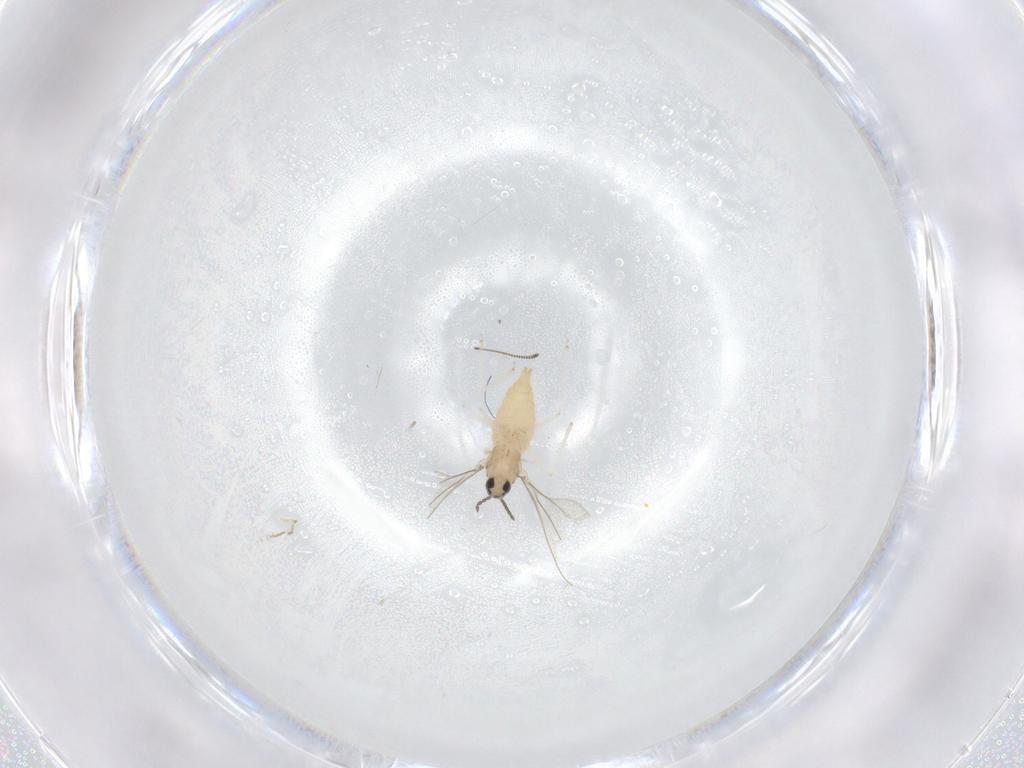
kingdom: Animalia
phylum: Arthropoda
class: Insecta
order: Diptera
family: Chironomidae
